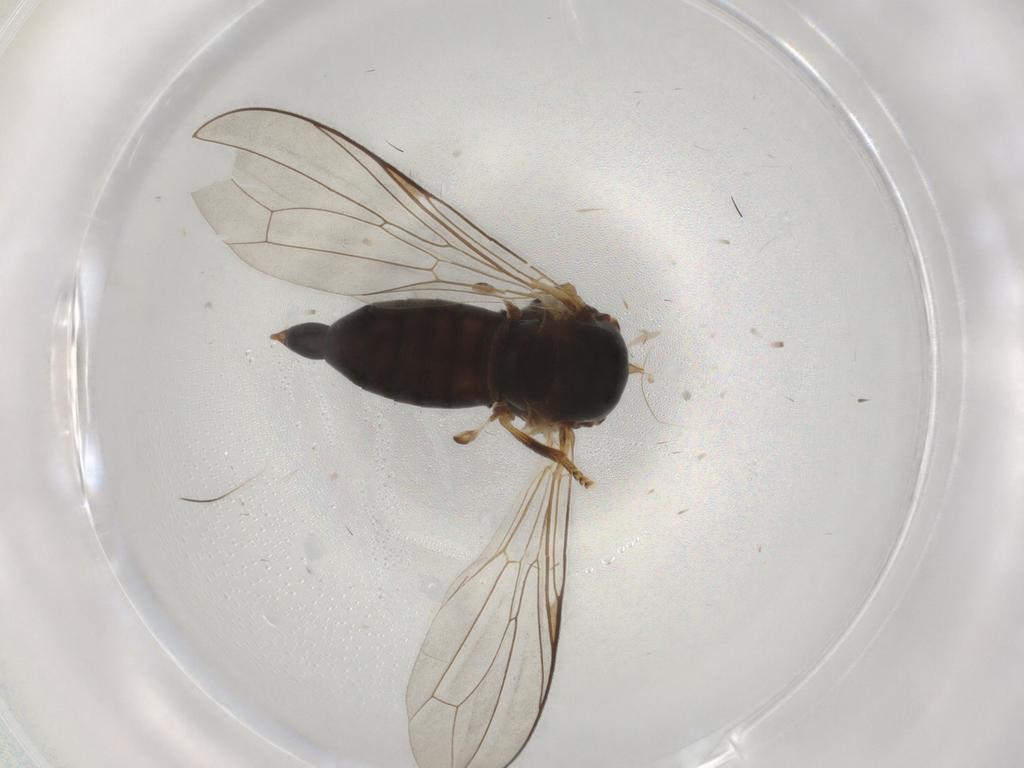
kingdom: Animalia
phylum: Arthropoda
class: Insecta
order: Diptera
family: Pipunculidae
